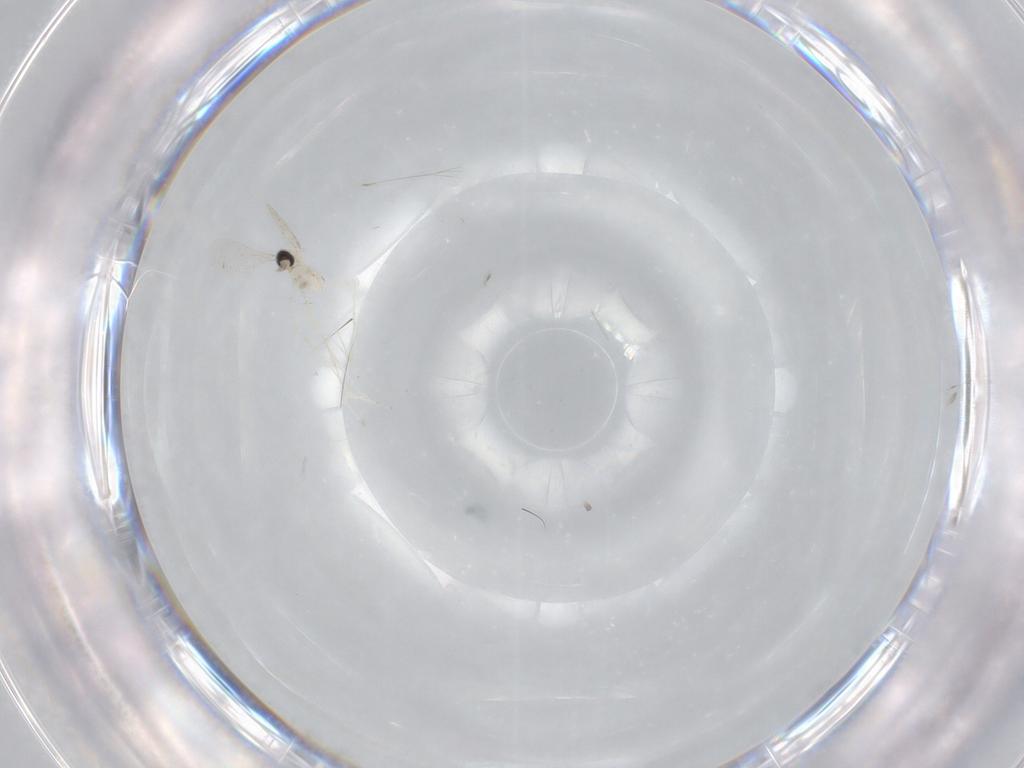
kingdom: Animalia
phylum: Arthropoda
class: Insecta
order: Diptera
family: Cecidomyiidae
